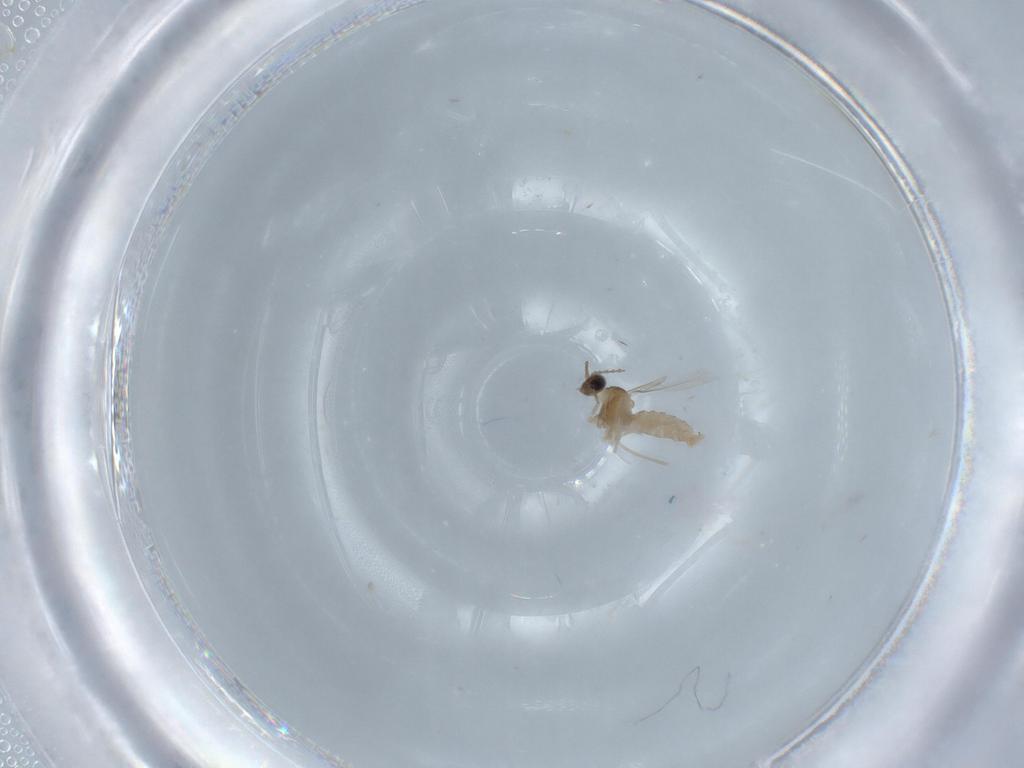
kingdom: Animalia
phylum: Arthropoda
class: Insecta
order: Diptera
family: Cecidomyiidae
